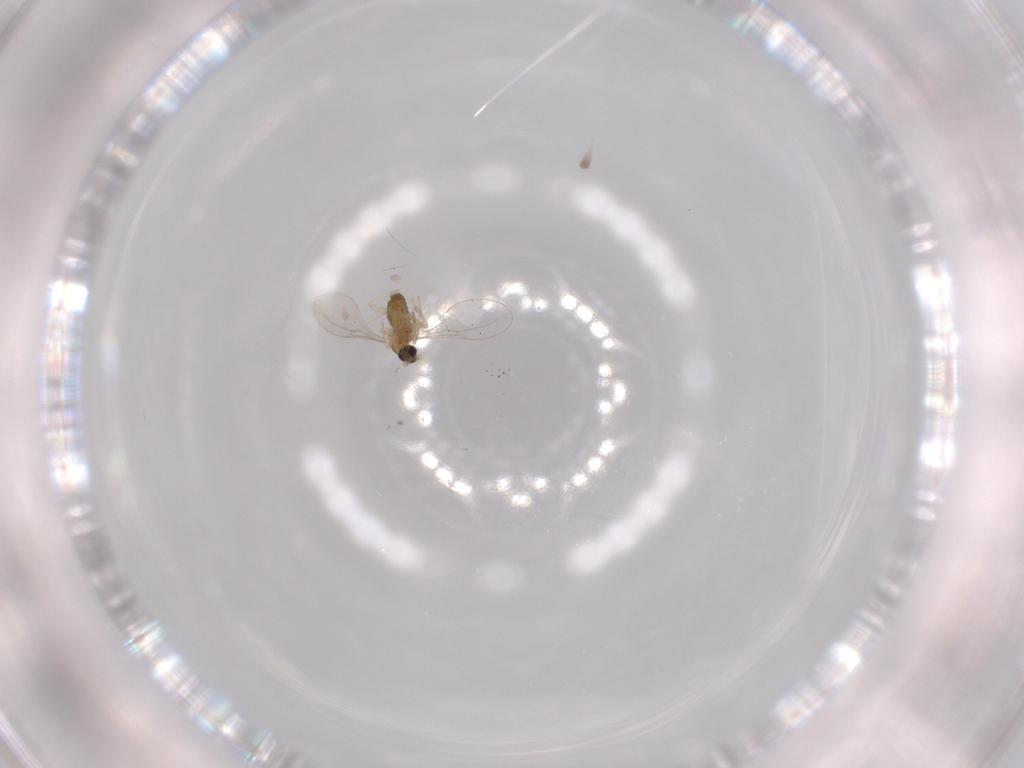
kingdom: Animalia
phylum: Arthropoda
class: Insecta
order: Diptera
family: Cecidomyiidae
